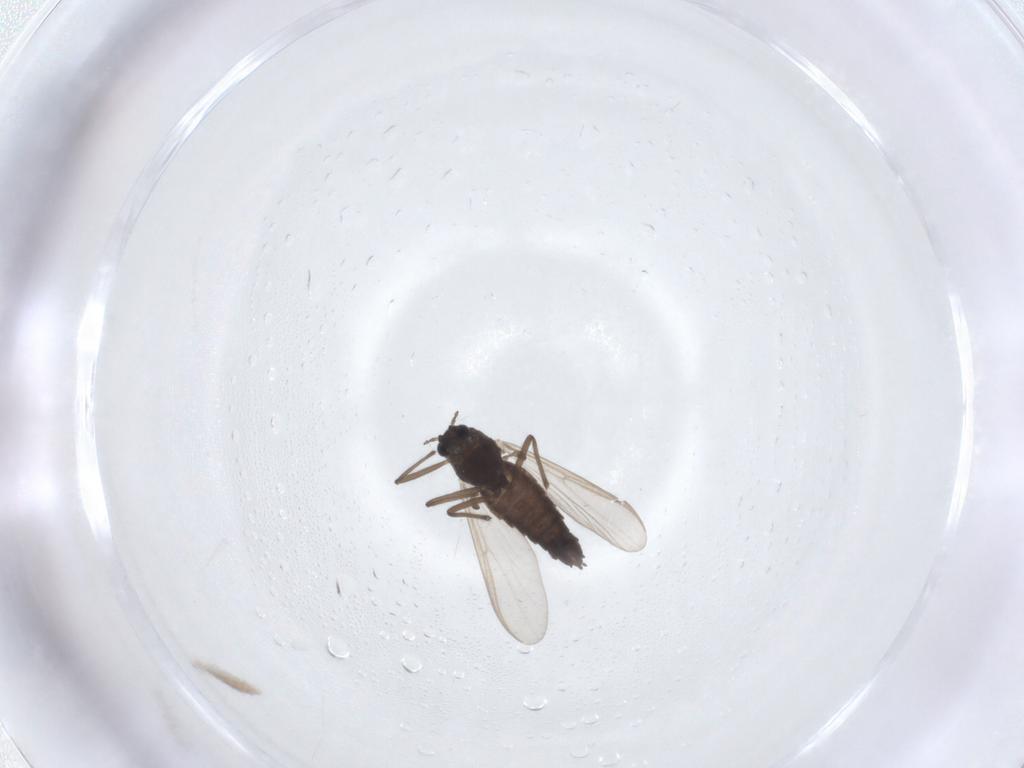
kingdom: Animalia
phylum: Arthropoda
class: Insecta
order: Diptera
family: Chironomidae
